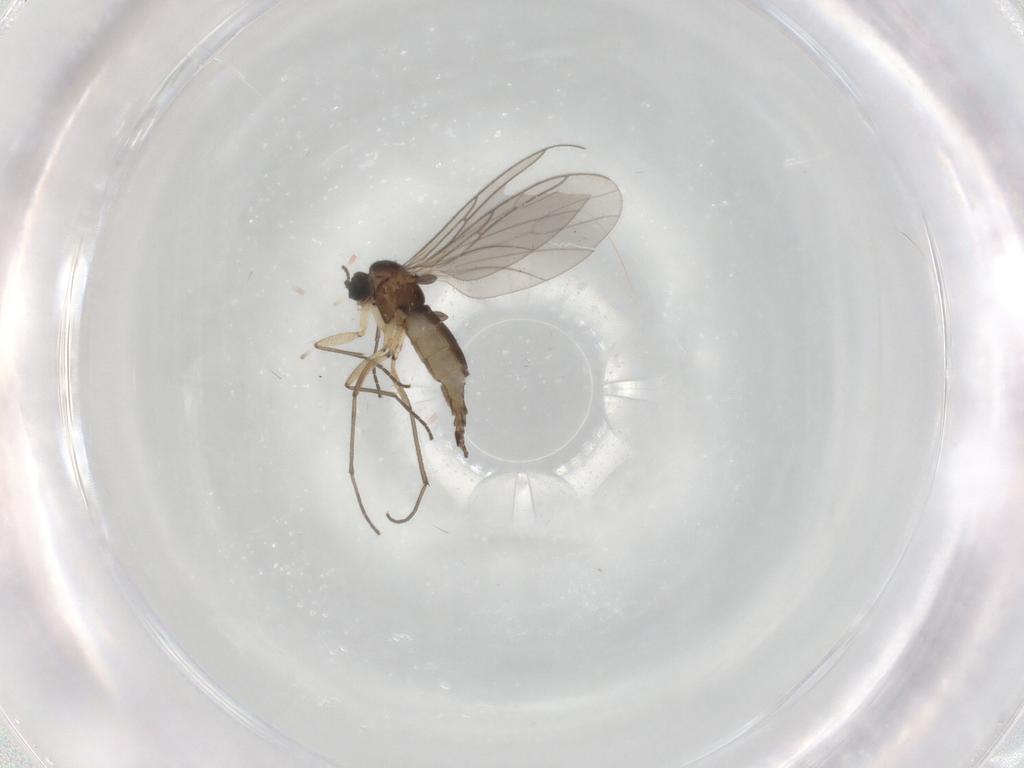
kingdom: Animalia
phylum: Arthropoda
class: Insecta
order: Diptera
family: Sciaridae
